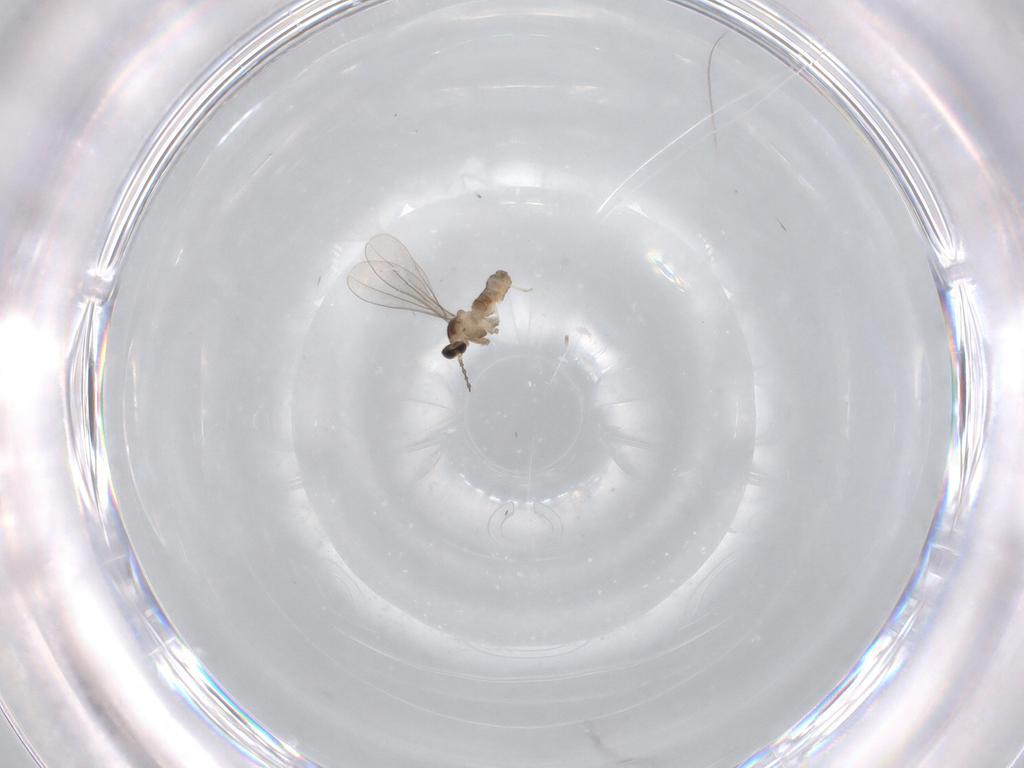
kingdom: Animalia
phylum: Arthropoda
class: Insecta
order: Diptera
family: Cecidomyiidae
